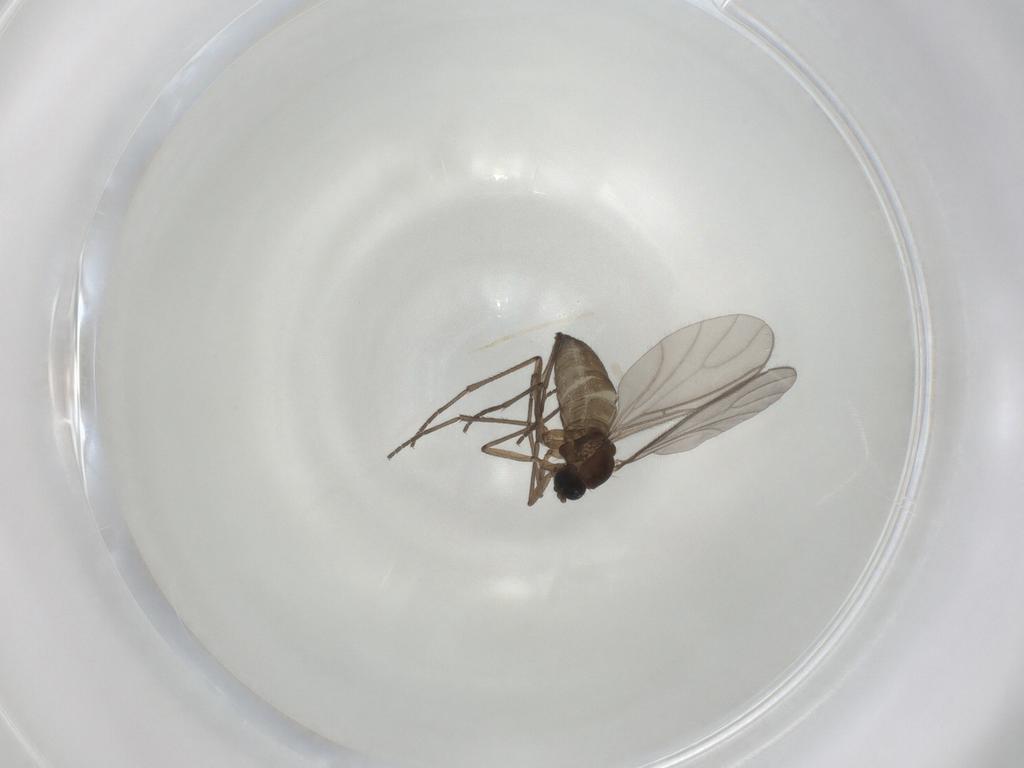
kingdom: Animalia
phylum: Arthropoda
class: Insecta
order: Diptera
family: Sciaridae
